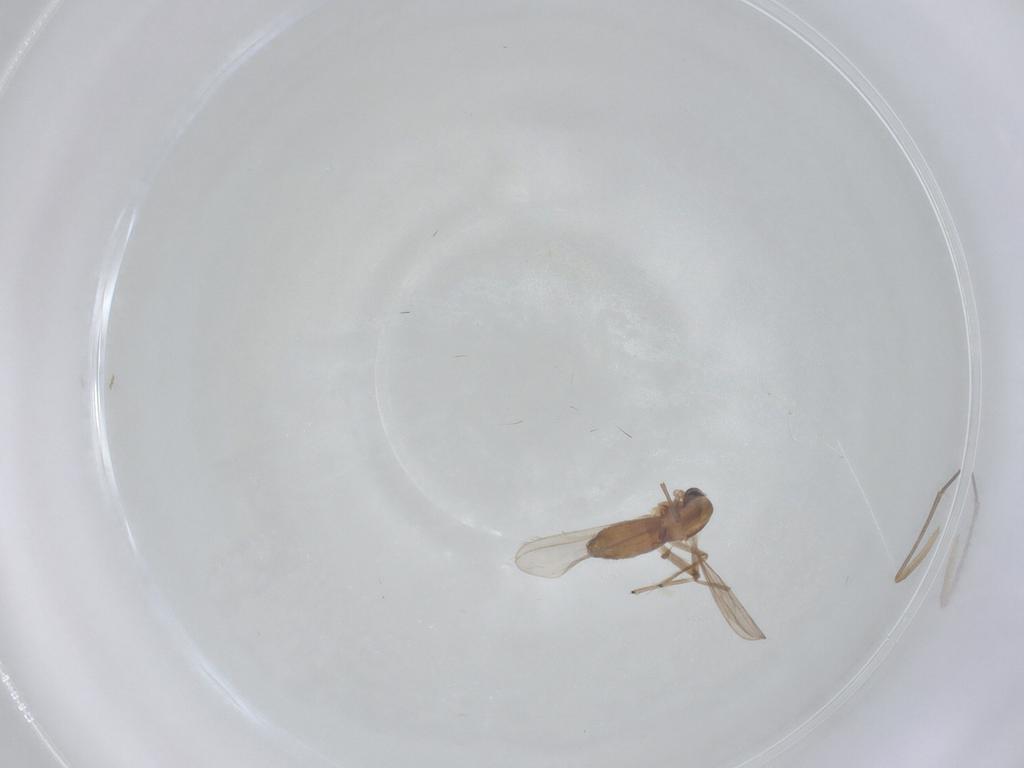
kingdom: Animalia
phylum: Arthropoda
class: Insecta
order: Diptera
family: Chironomidae
